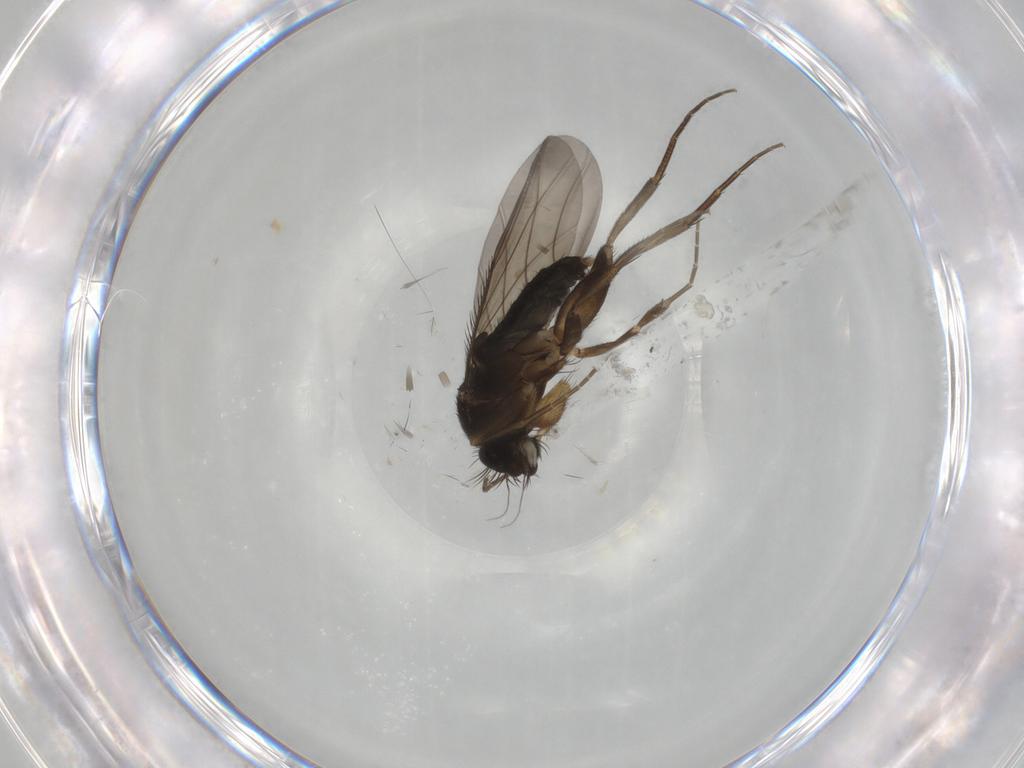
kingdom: Animalia
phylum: Arthropoda
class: Insecta
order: Diptera
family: Phoridae
